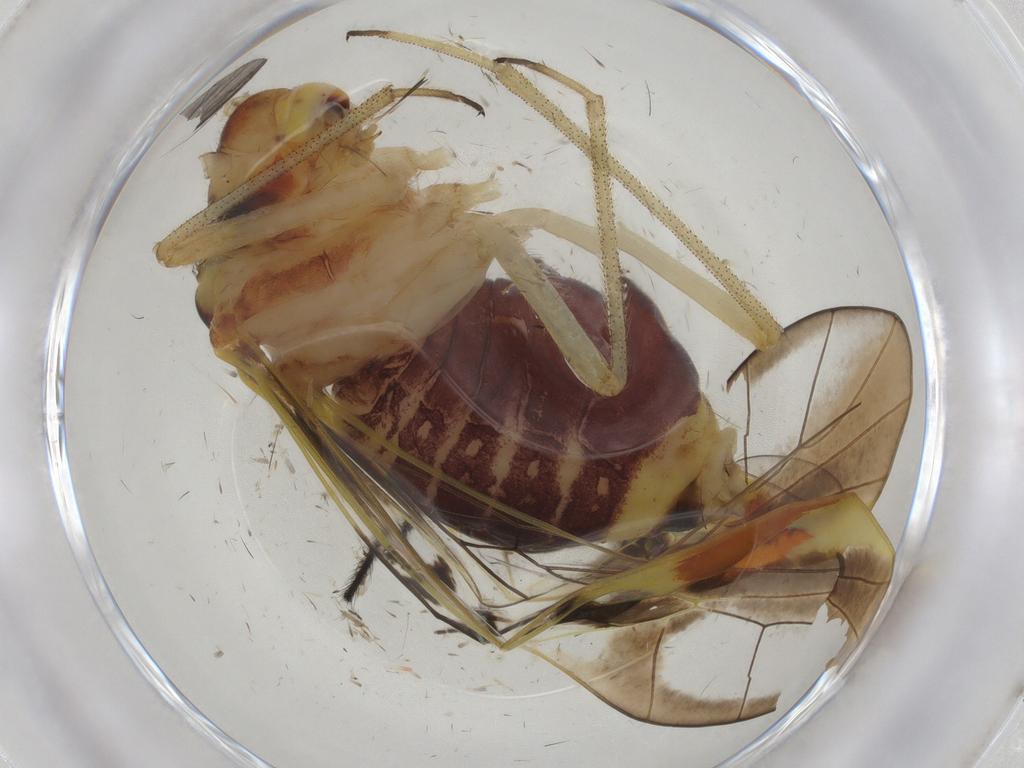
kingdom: Animalia
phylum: Arthropoda
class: Insecta
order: Psocodea
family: Psocidae
